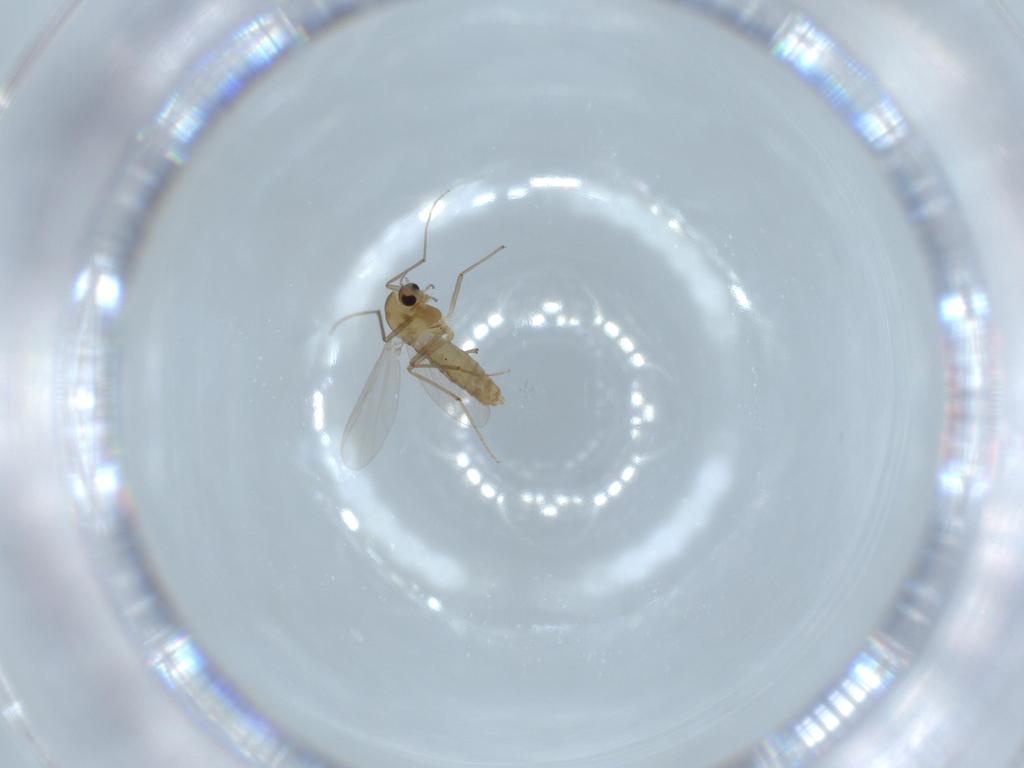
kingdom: Animalia
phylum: Arthropoda
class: Insecta
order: Diptera
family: Chironomidae
